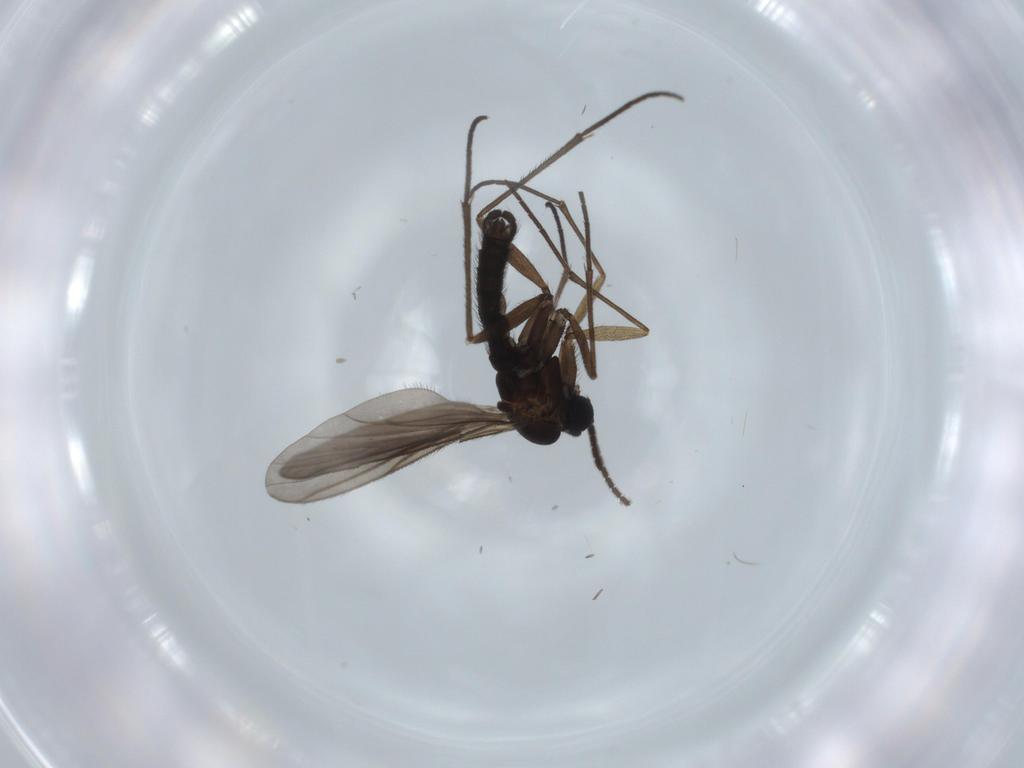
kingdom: Animalia
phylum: Arthropoda
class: Insecta
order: Diptera
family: Sciaridae
